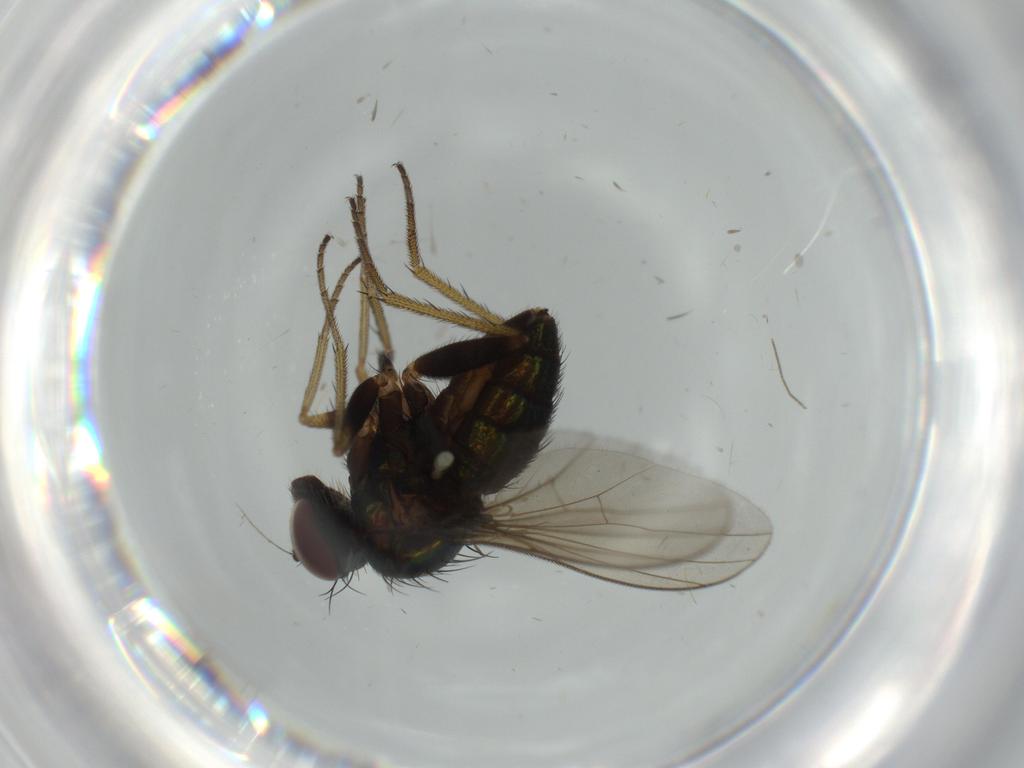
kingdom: Animalia
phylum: Arthropoda
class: Insecta
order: Diptera
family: Cecidomyiidae
